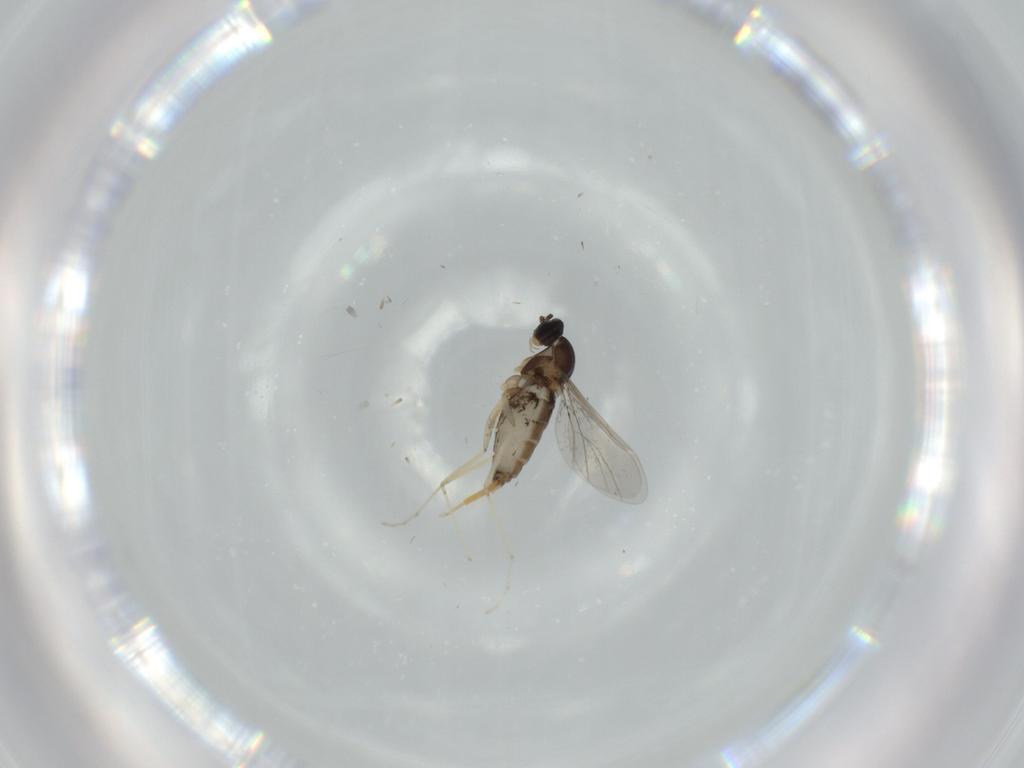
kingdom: Animalia
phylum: Arthropoda
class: Insecta
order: Diptera
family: Cecidomyiidae
